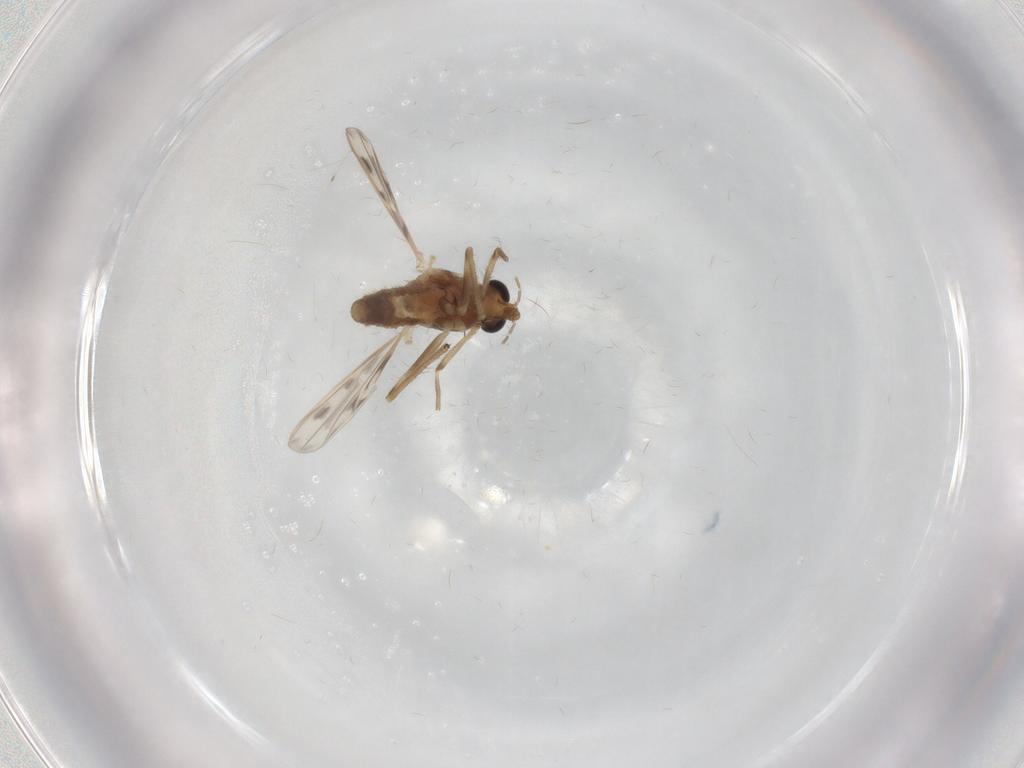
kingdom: Animalia
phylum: Arthropoda
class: Insecta
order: Diptera
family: Chironomidae
